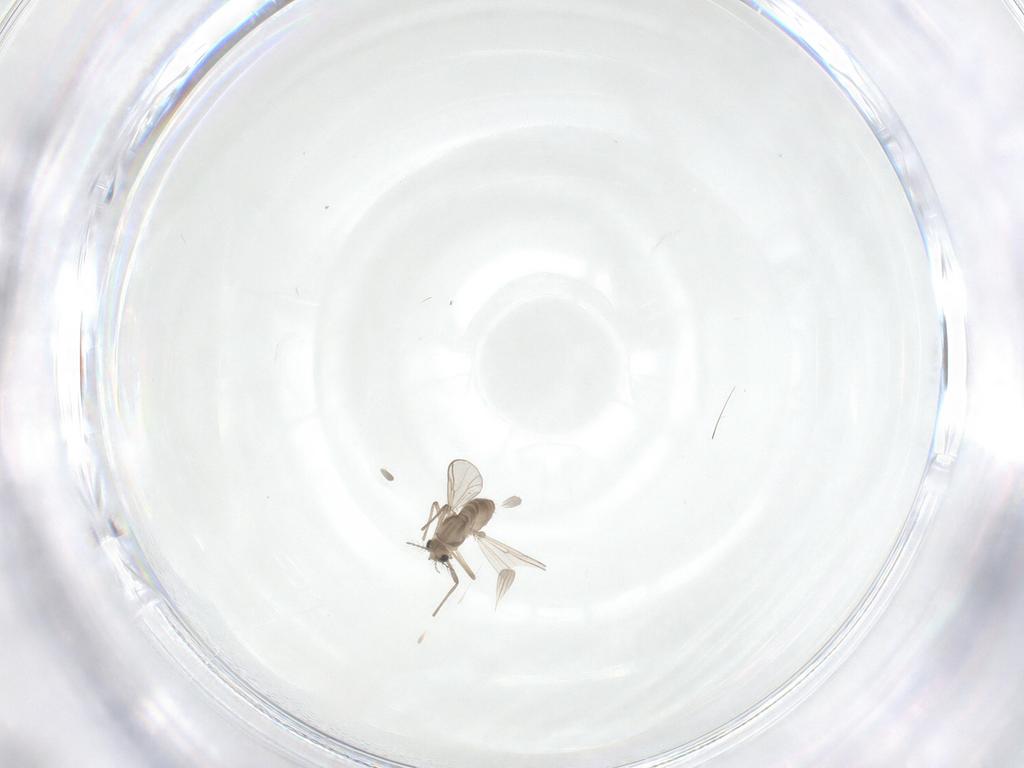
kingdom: Animalia
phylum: Arthropoda
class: Insecta
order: Diptera
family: Chironomidae
